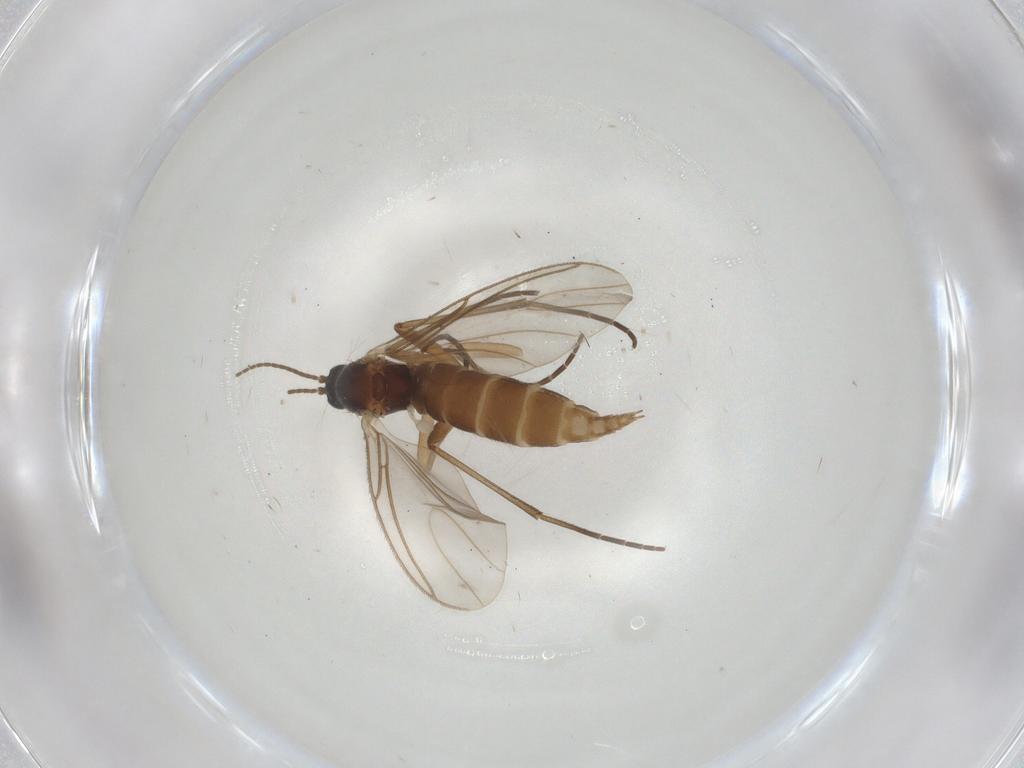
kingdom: Animalia
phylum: Arthropoda
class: Insecta
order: Diptera
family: Sciaridae
